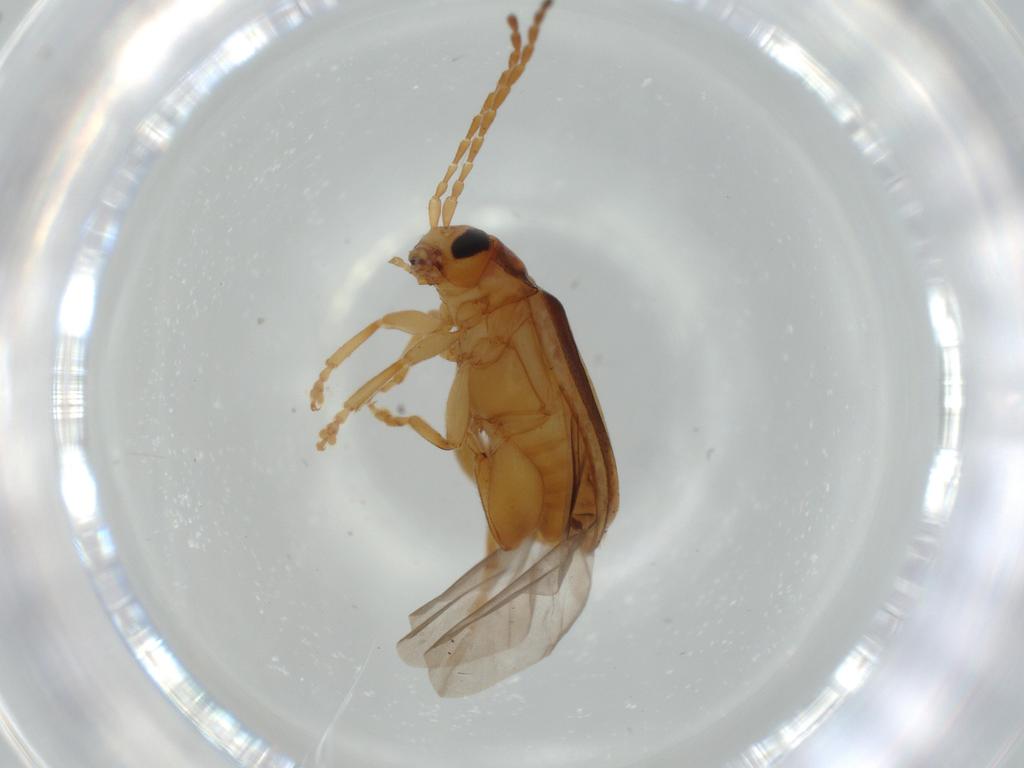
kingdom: Animalia
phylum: Arthropoda
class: Insecta
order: Coleoptera
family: Chrysomelidae
